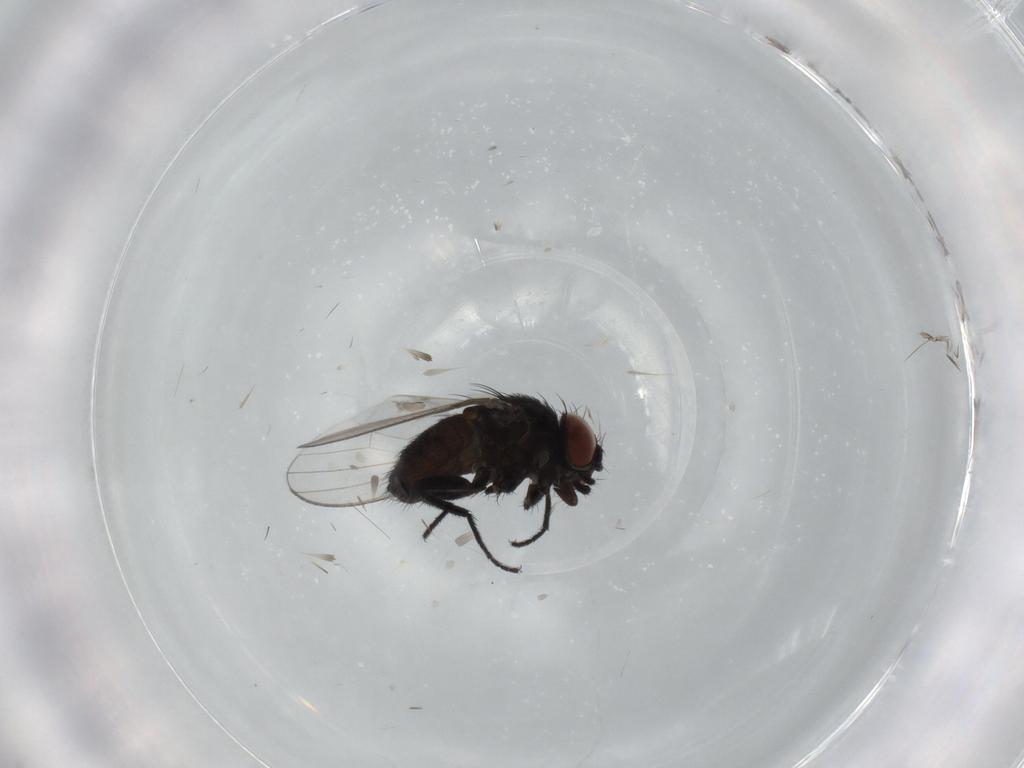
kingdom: Animalia
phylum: Arthropoda
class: Insecta
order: Diptera
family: Milichiidae
